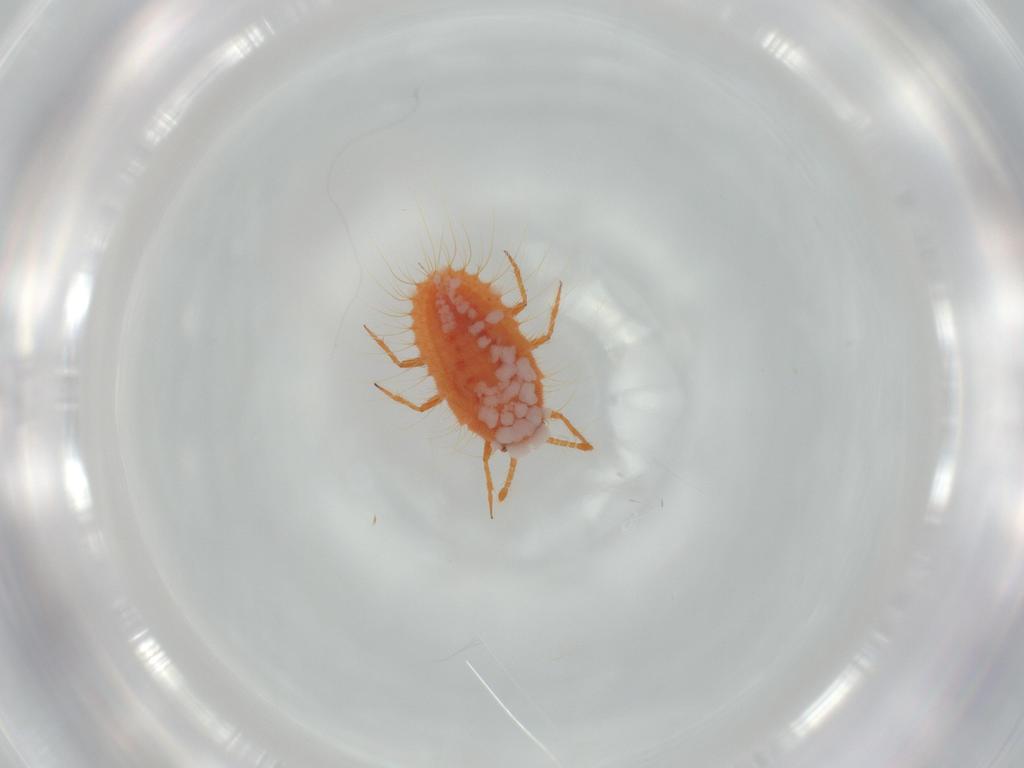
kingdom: Animalia
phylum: Arthropoda
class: Insecta
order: Hemiptera
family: Coccoidea_incertae_sedis
